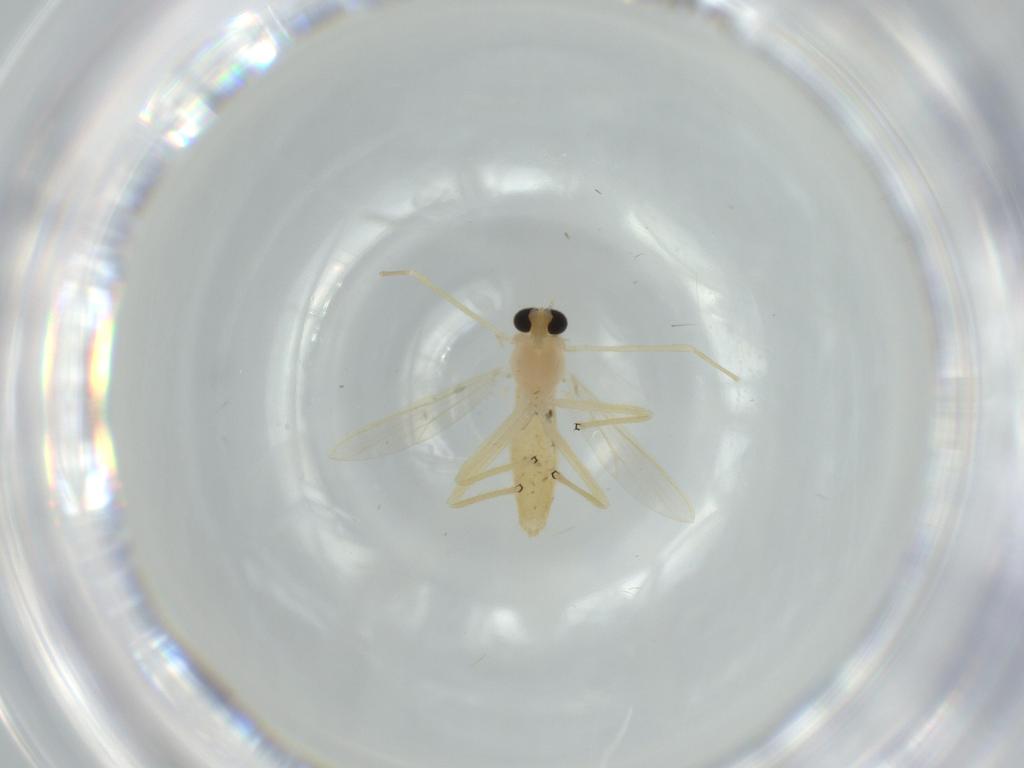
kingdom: Animalia
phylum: Arthropoda
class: Insecta
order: Diptera
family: Chironomidae
